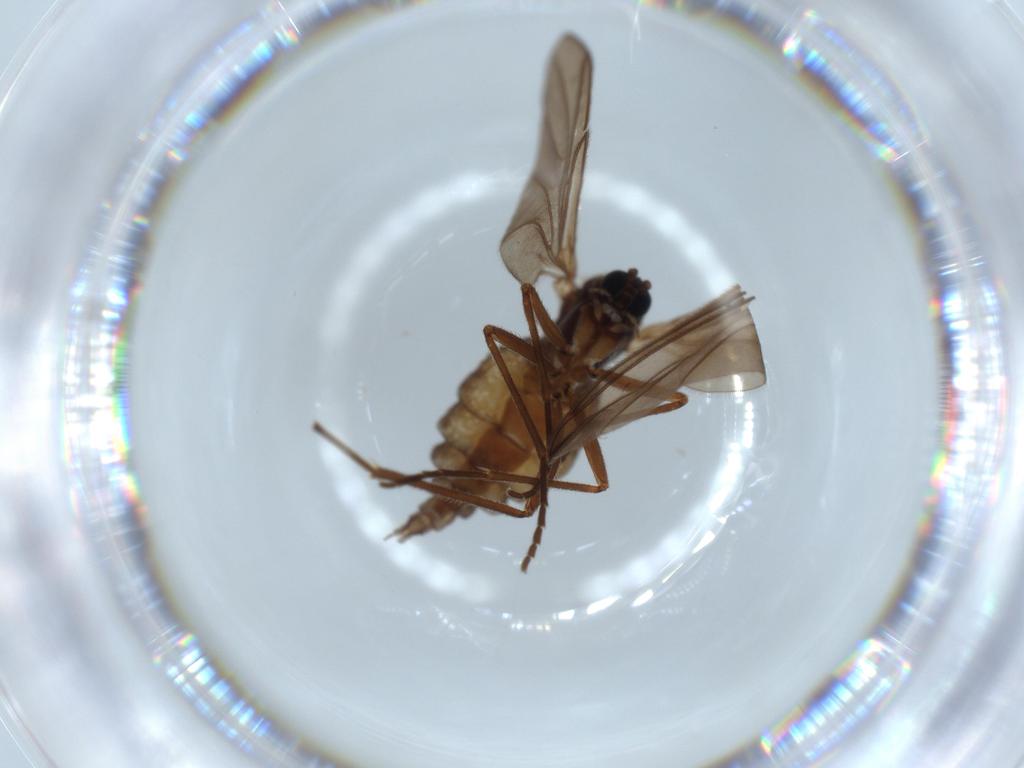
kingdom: Animalia
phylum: Arthropoda
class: Insecta
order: Diptera
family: Sciaridae
